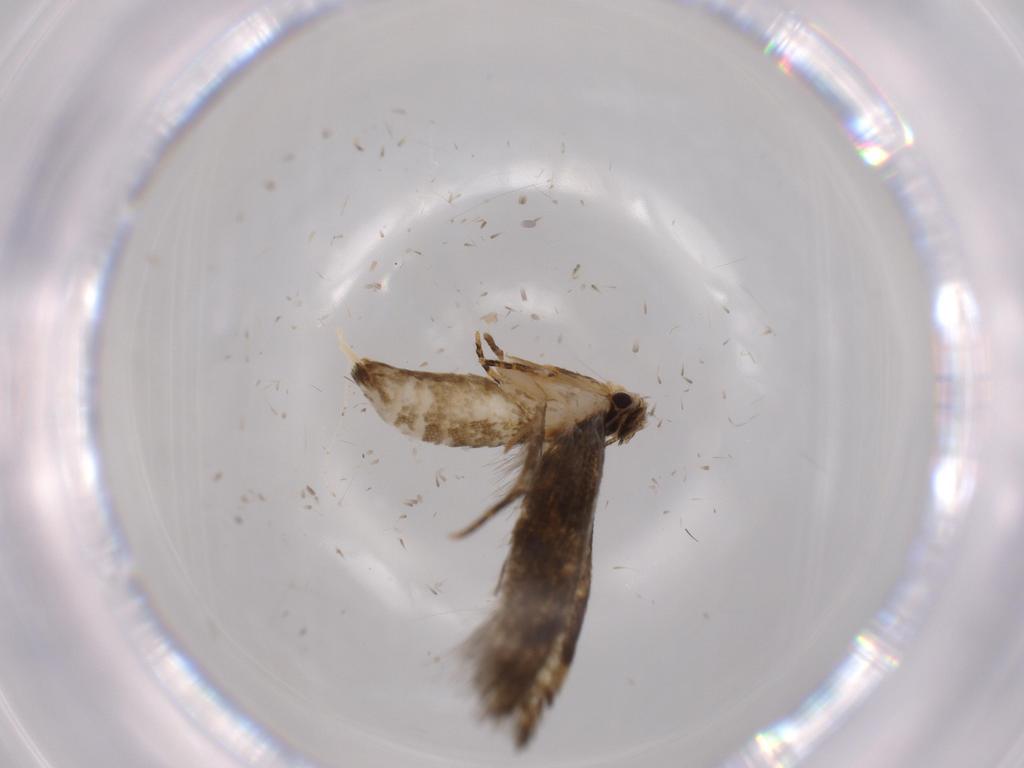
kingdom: Animalia
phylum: Arthropoda
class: Insecta
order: Lepidoptera
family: Tineidae
